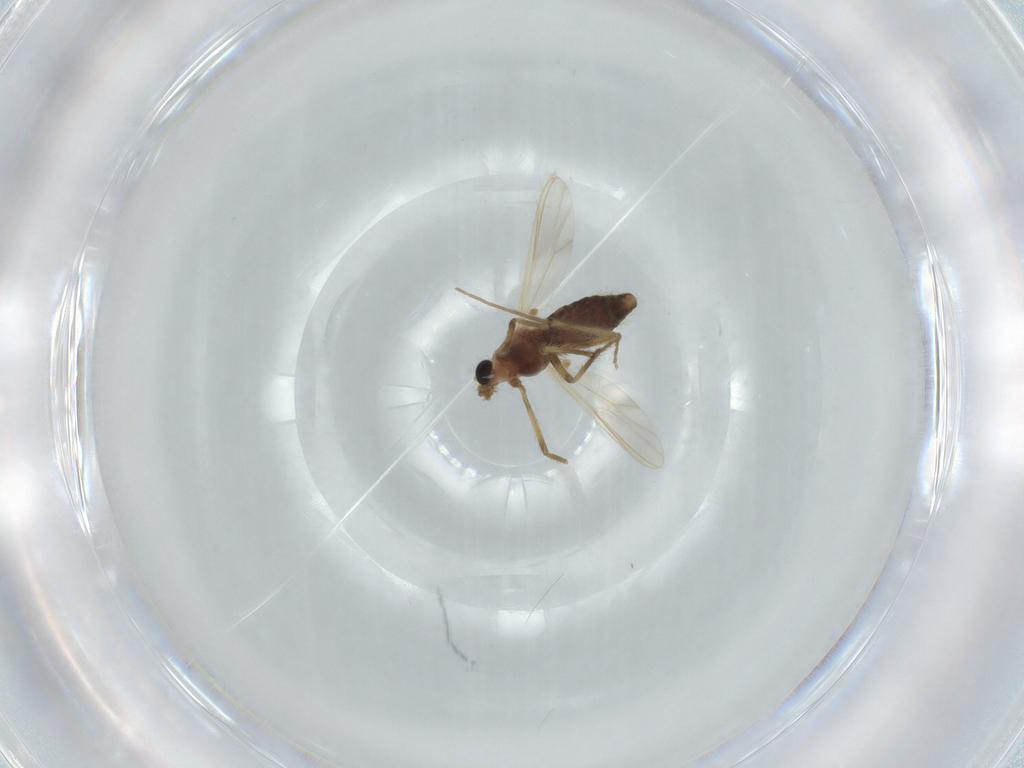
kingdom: Animalia
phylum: Arthropoda
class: Insecta
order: Diptera
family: Chironomidae
